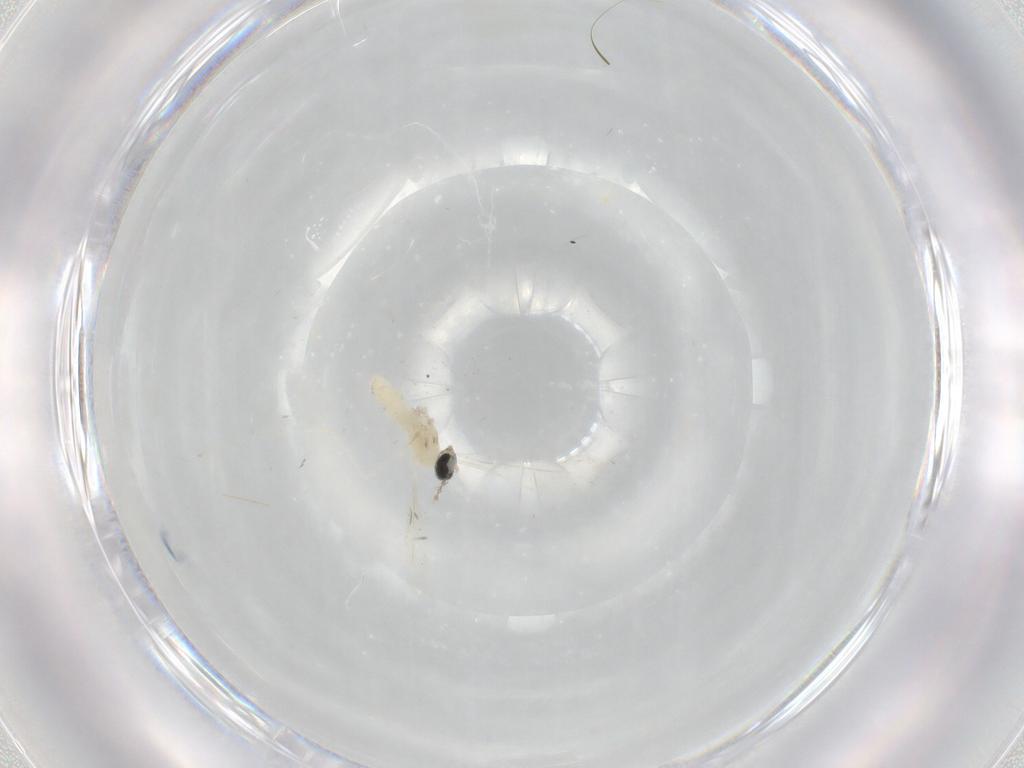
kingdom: Animalia
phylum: Arthropoda
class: Insecta
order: Diptera
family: Cecidomyiidae
